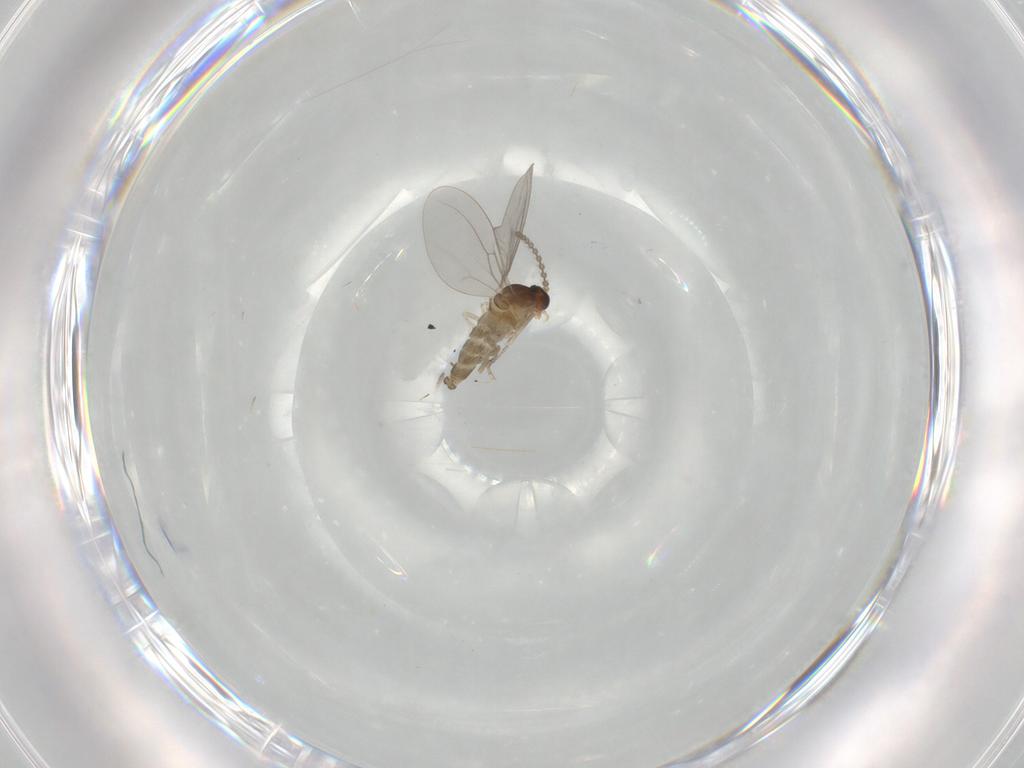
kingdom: Animalia
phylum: Arthropoda
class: Insecta
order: Diptera
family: Cecidomyiidae
